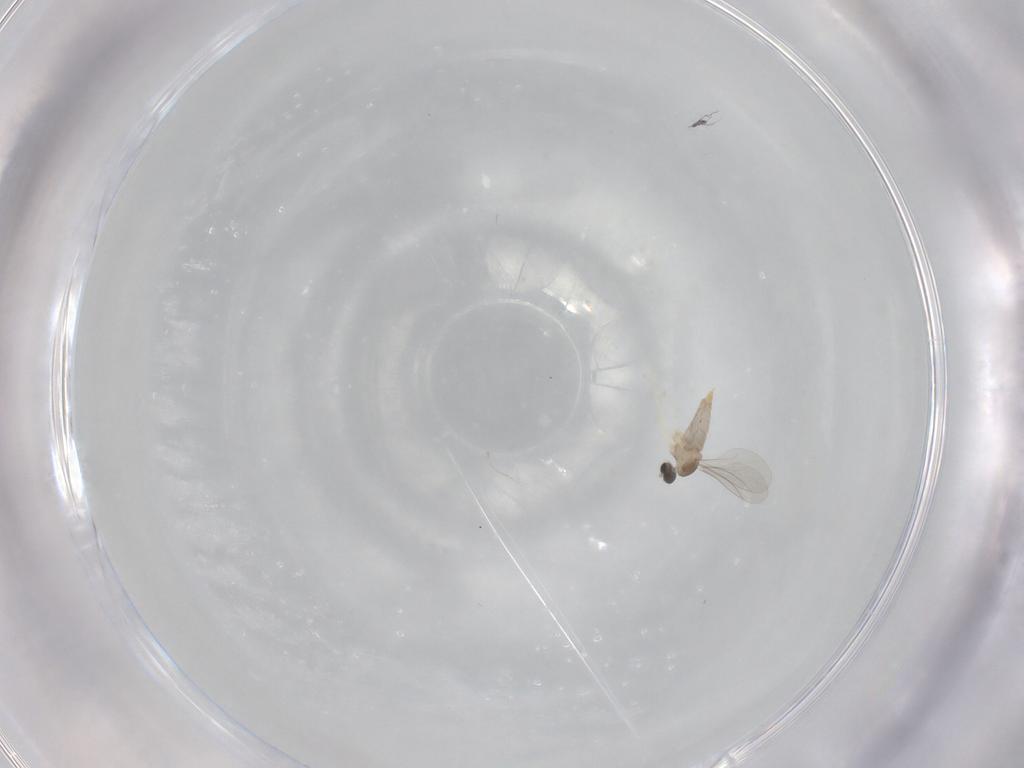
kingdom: Animalia
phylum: Arthropoda
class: Insecta
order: Diptera
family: Cecidomyiidae
